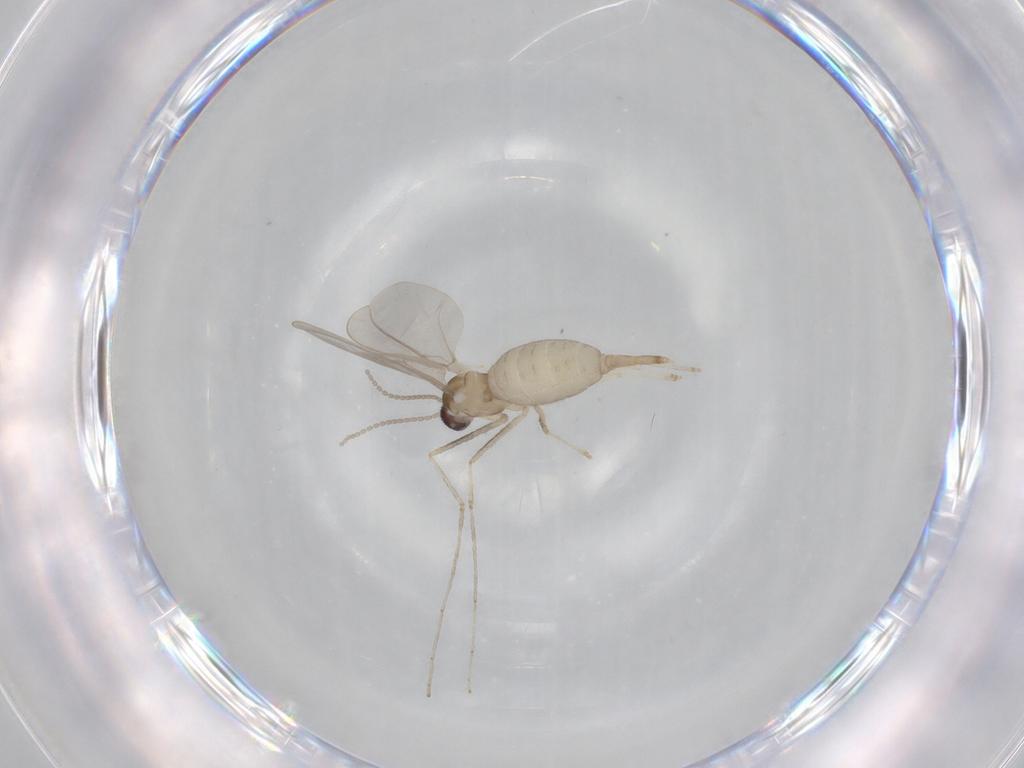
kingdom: Animalia
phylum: Arthropoda
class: Insecta
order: Diptera
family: Cecidomyiidae
